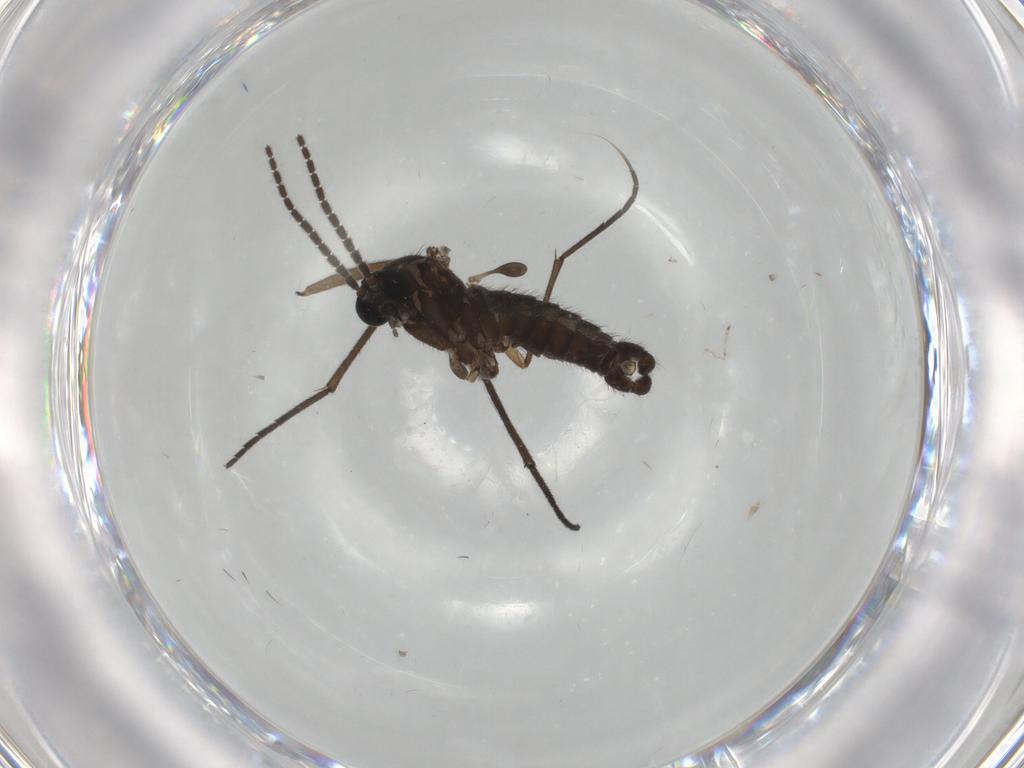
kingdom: Animalia
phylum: Arthropoda
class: Insecta
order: Diptera
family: Sciaridae
